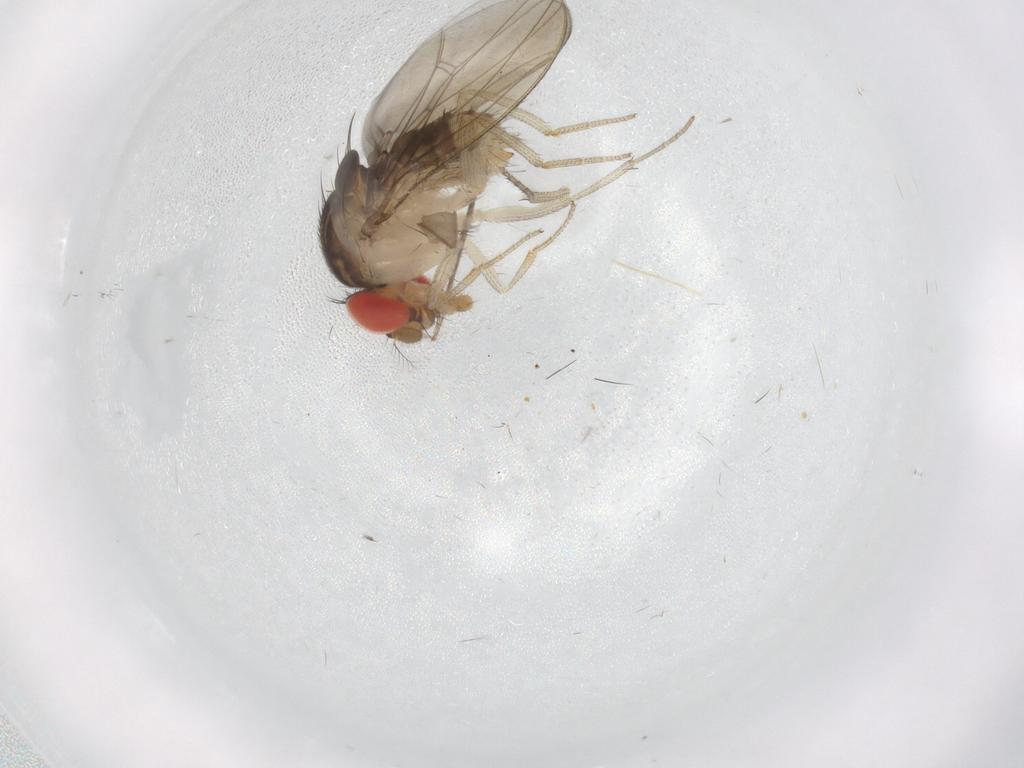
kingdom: Animalia
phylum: Arthropoda
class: Insecta
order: Diptera
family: Drosophilidae
